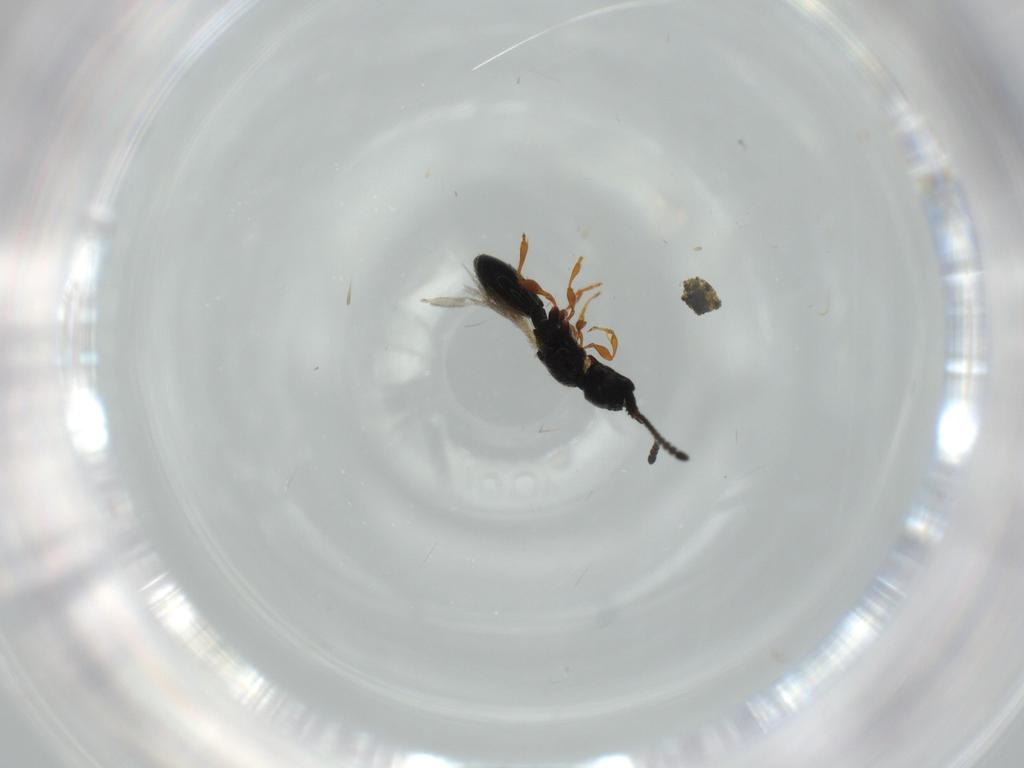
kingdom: Animalia
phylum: Arthropoda
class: Insecta
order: Hymenoptera
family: Diapriidae
